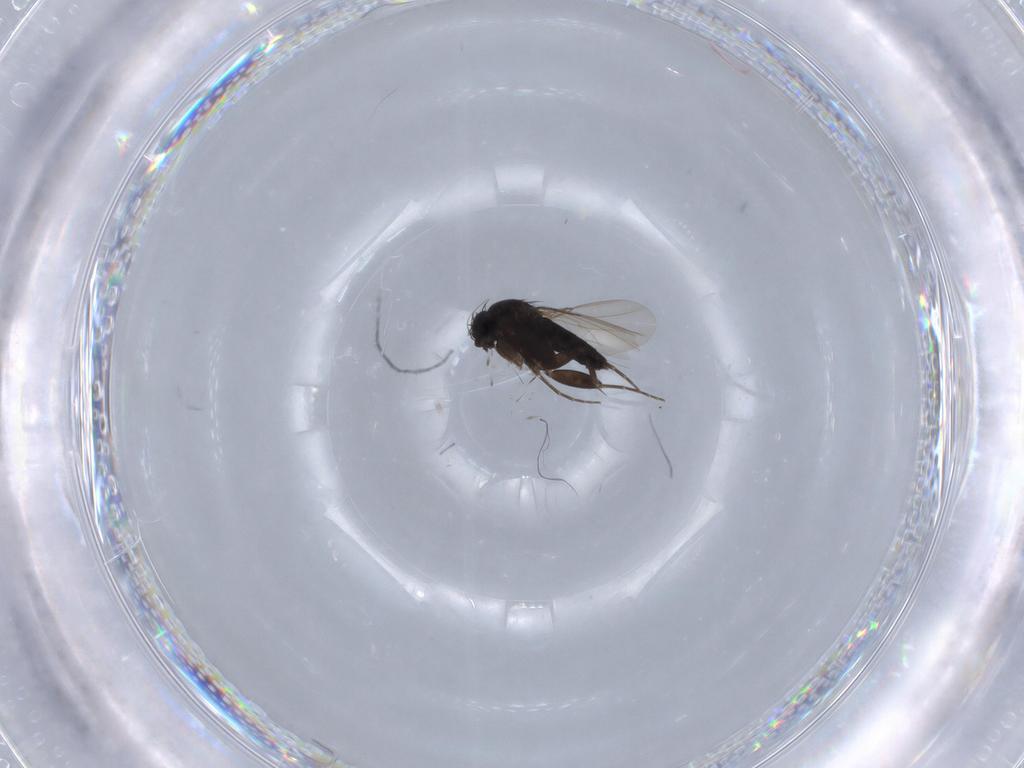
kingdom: Animalia
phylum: Arthropoda
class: Insecta
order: Diptera
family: Phoridae
